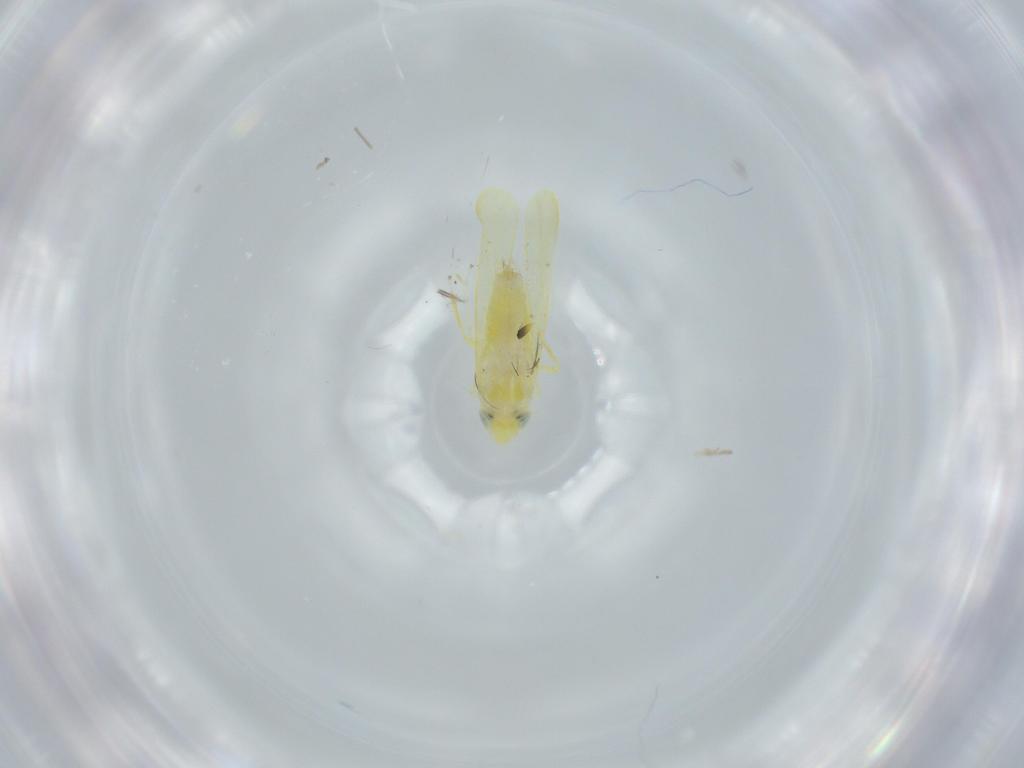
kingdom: Animalia
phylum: Arthropoda
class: Insecta
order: Hemiptera
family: Cicadellidae
